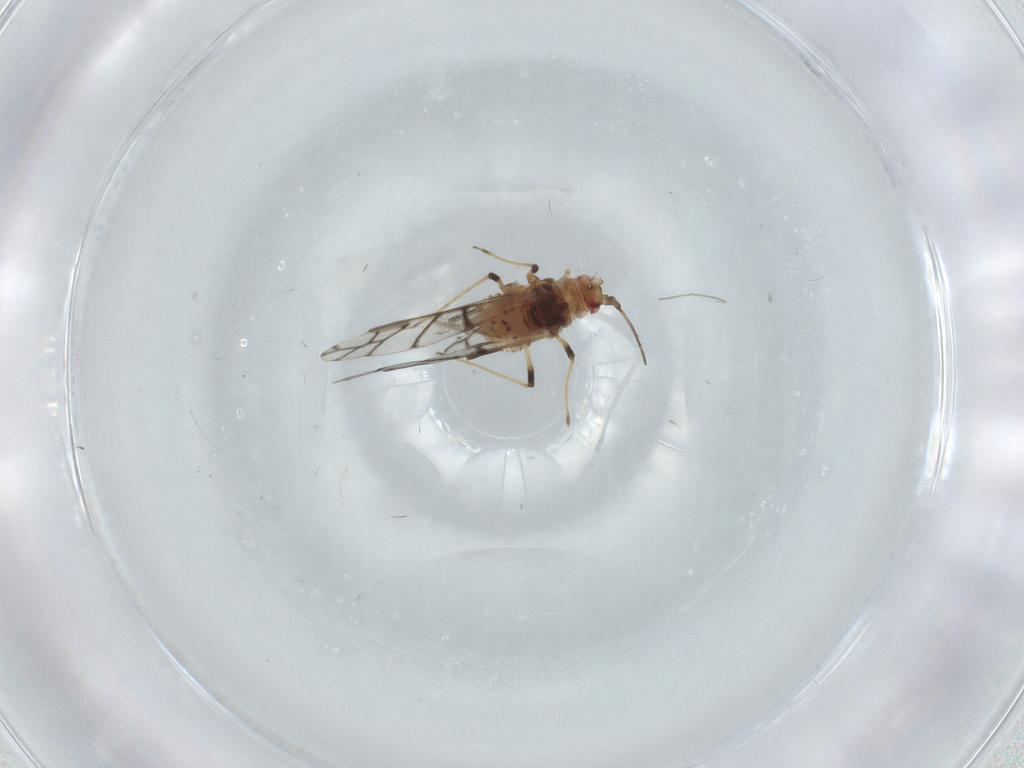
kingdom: Animalia
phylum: Arthropoda
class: Insecta
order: Hemiptera
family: Aphididae
